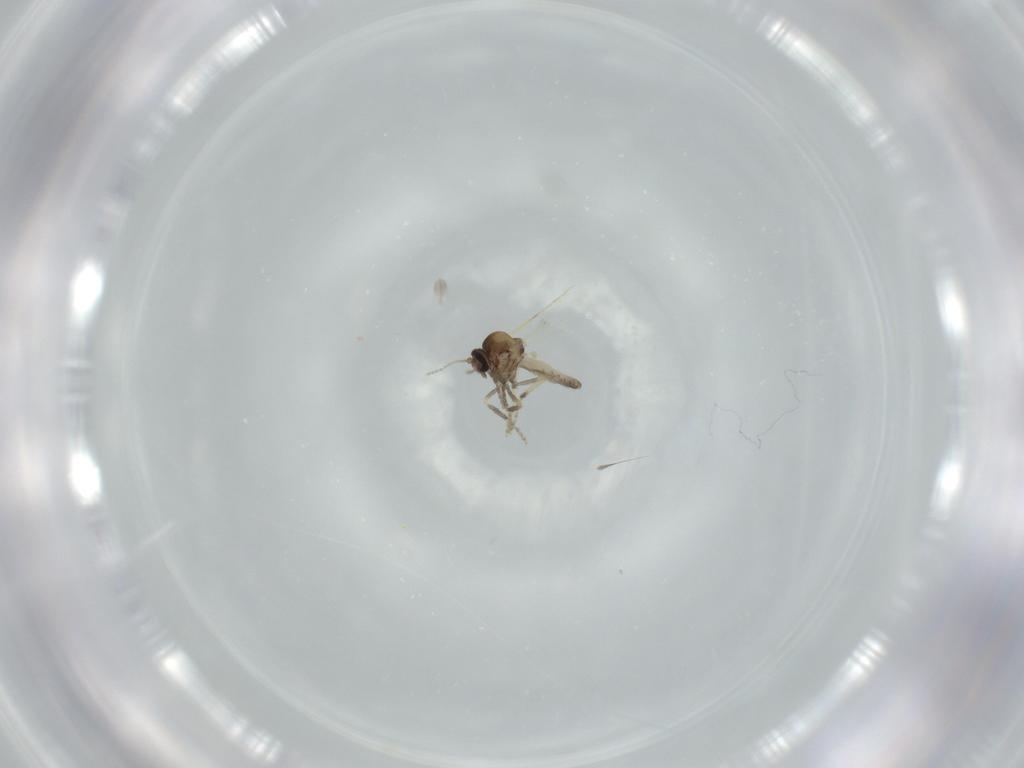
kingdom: Animalia
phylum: Arthropoda
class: Insecta
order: Diptera
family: Ceratopogonidae
